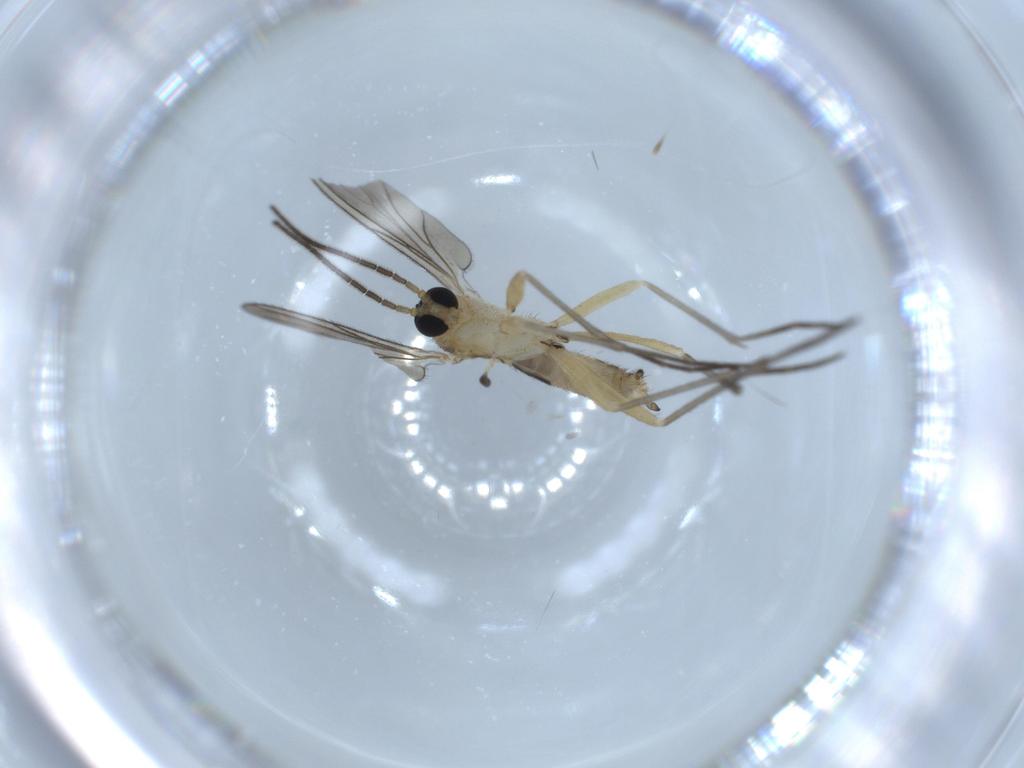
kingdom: Animalia
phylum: Arthropoda
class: Insecta
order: Diptera
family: Sciaridae
